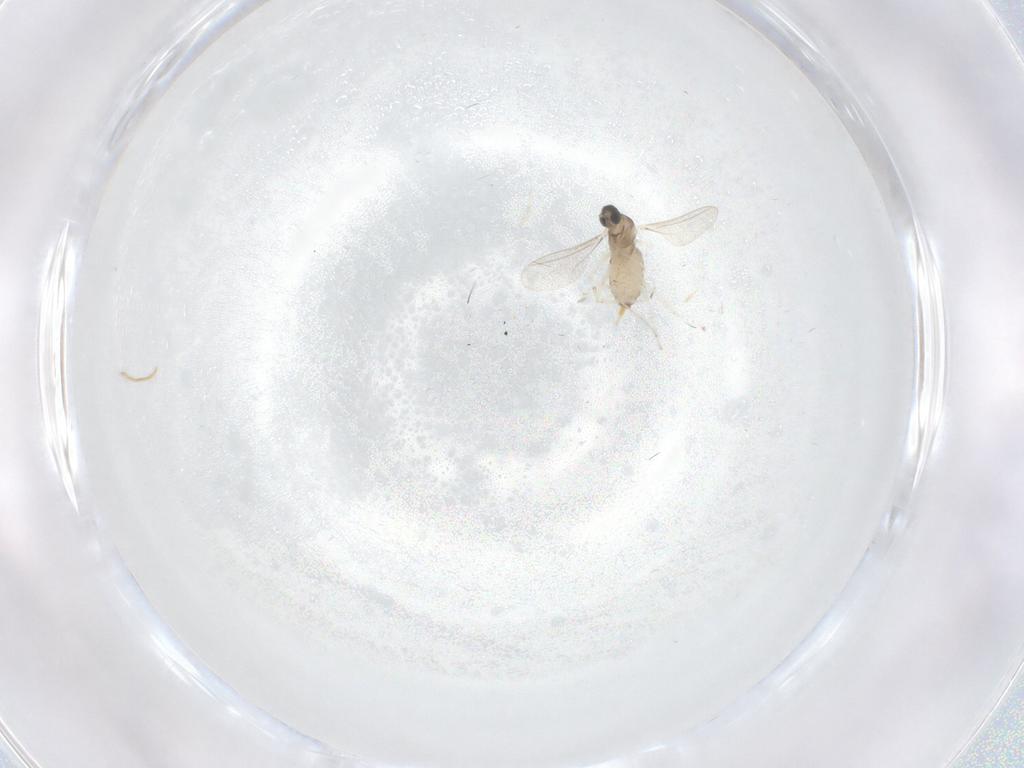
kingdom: Animalia
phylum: Arthropoda
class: Insecta
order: Diptera
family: Cecidomyiidae
